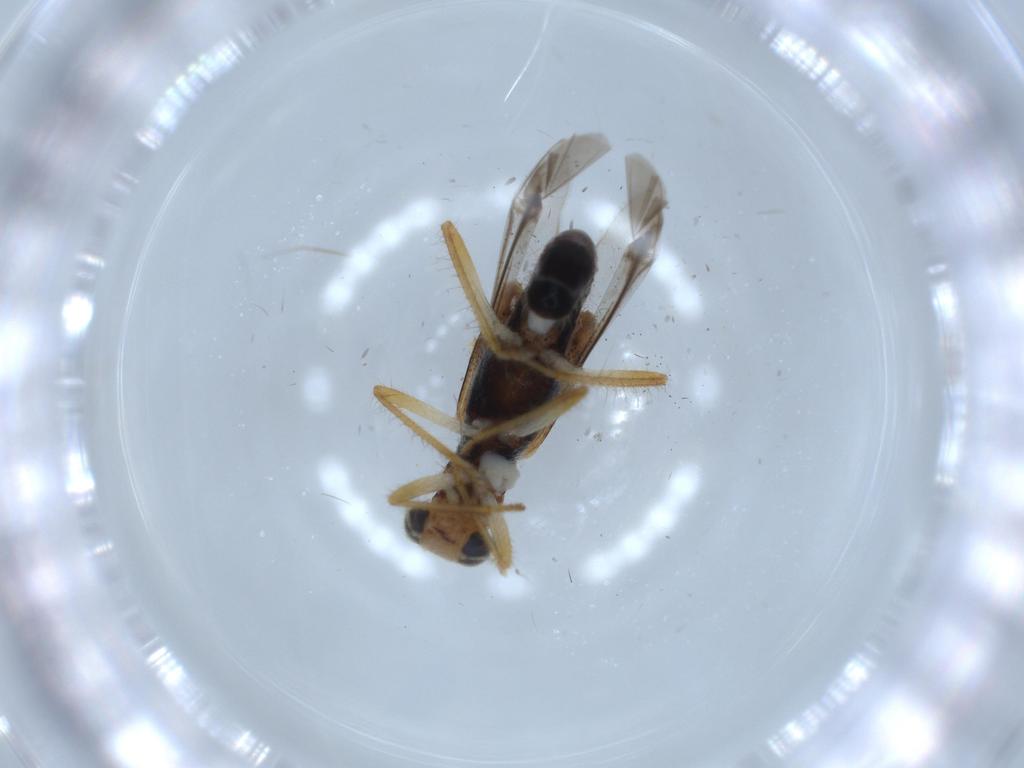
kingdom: Animalia
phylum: Arthropoda
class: Insecta
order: Coleoptera
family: Cleridae
